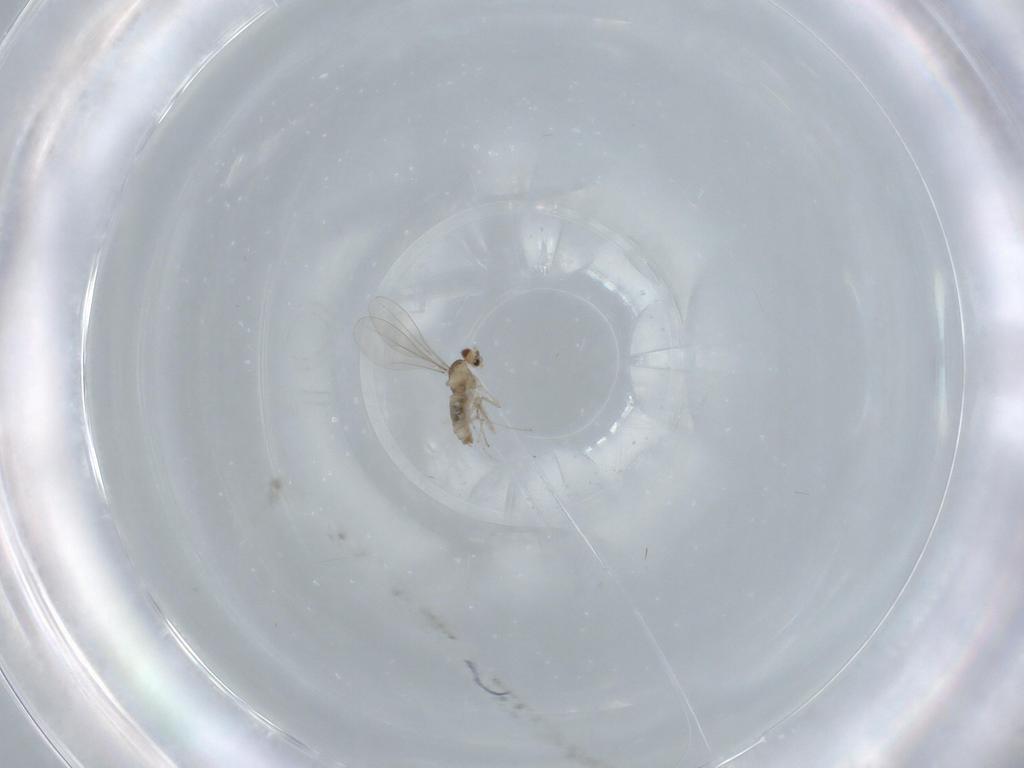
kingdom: Animalia
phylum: Arthropoda
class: Insecta
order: Diptera
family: Cecidomyiidae
